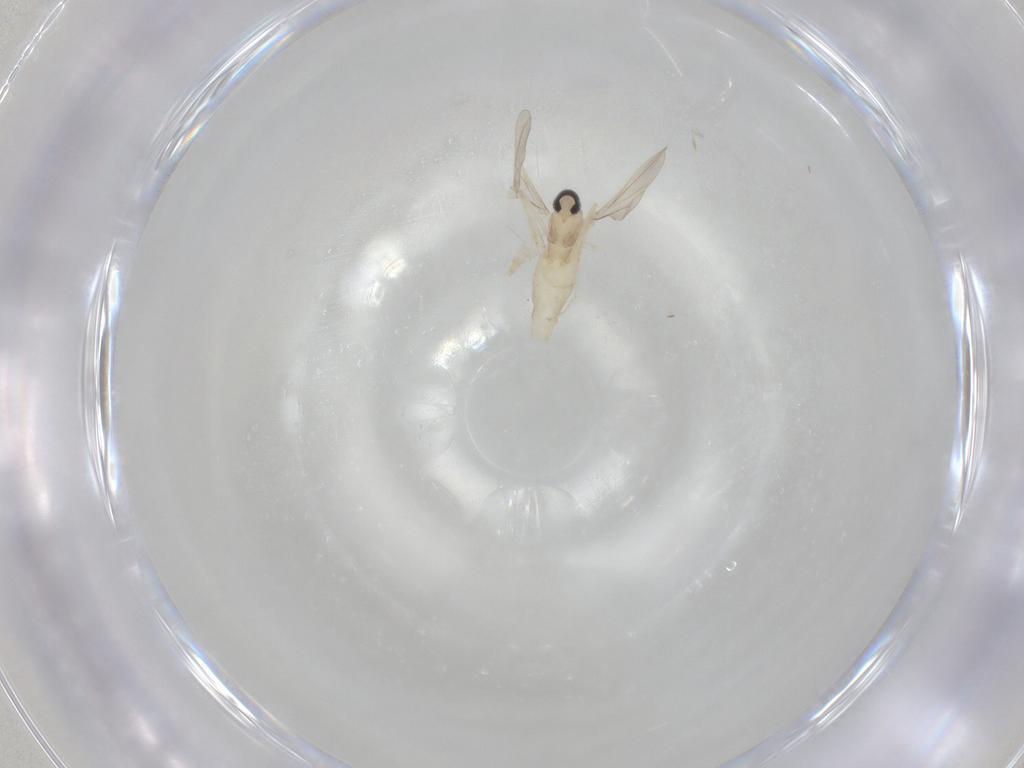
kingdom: Animalia
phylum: Arthropoda
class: Insecta
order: Diptera
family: Cecidomyiidae
